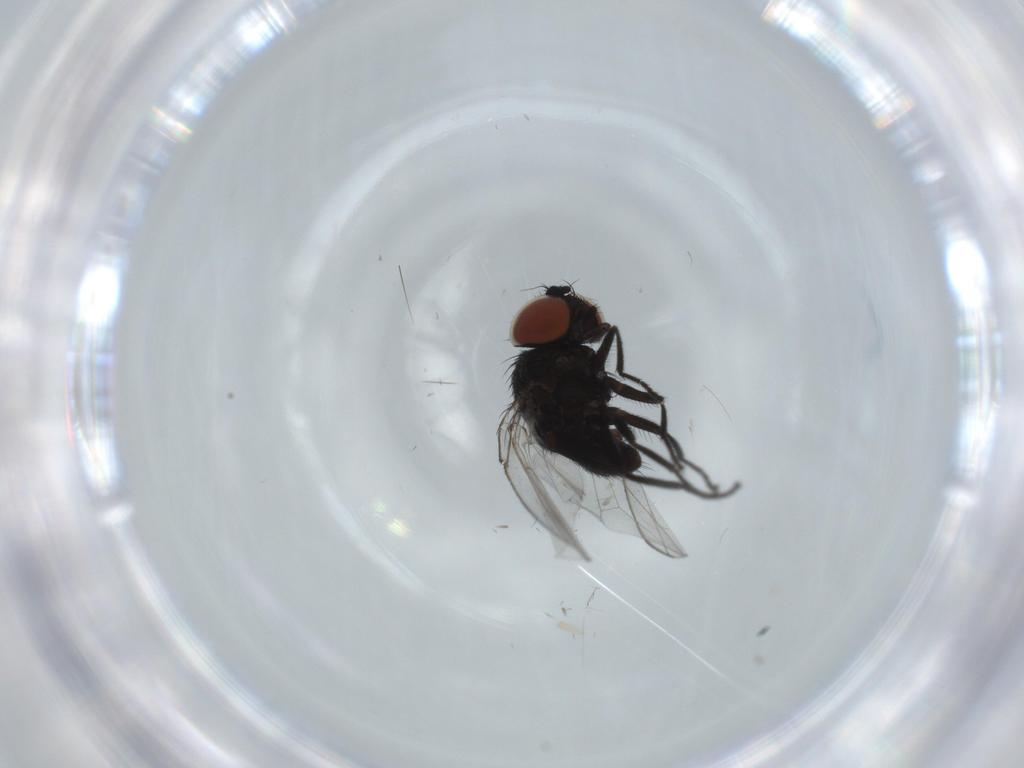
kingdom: Animalia
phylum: Arthropoda
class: Insecta
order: Diptera
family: Milichiidae
